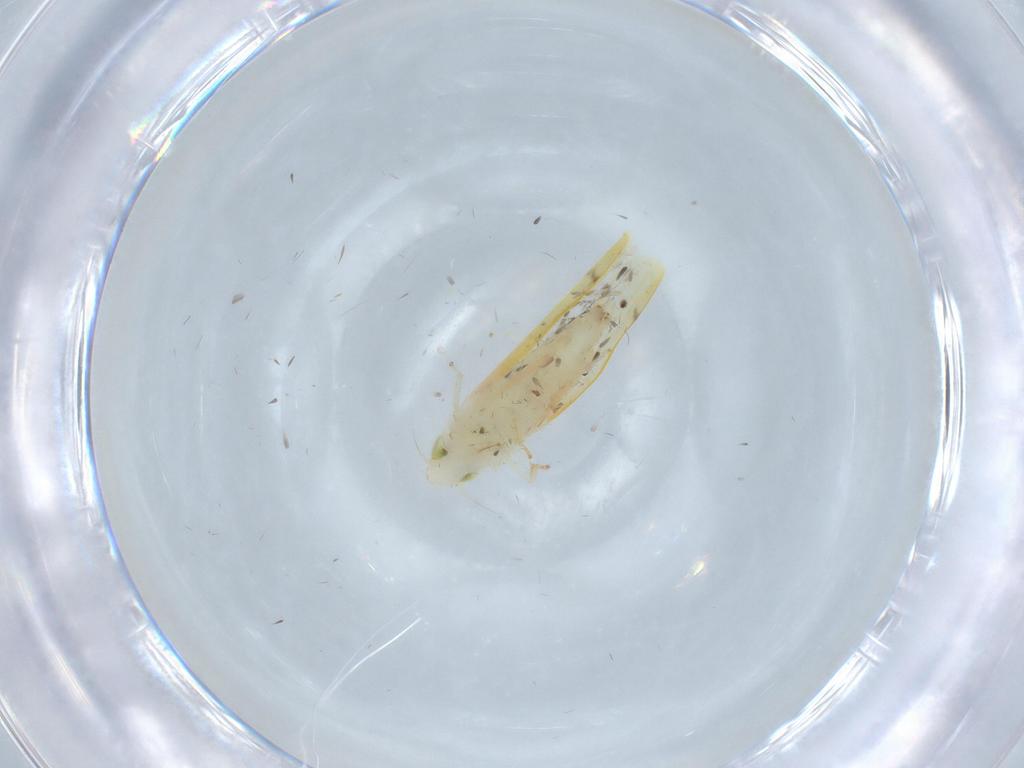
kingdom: Animalia
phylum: Arthropoda
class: Insecta
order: Hemiptera
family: Cicadellidae
